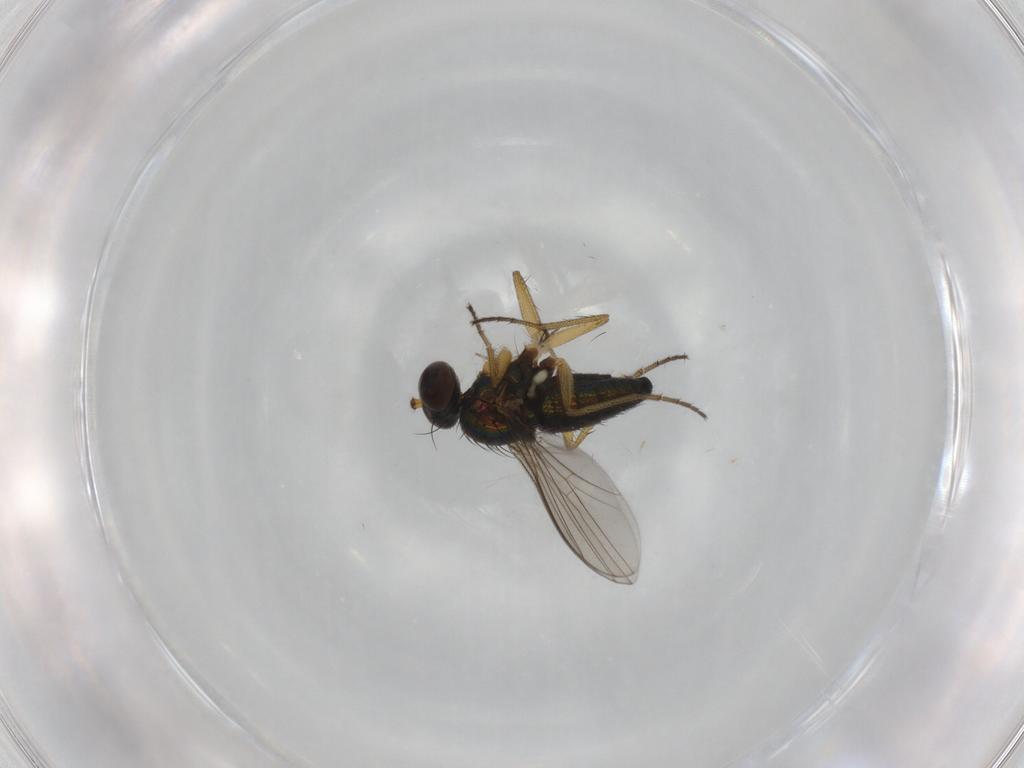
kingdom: Animalia
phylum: Arthropoda
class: Insecta
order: Diptera
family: Dolichopodidae
